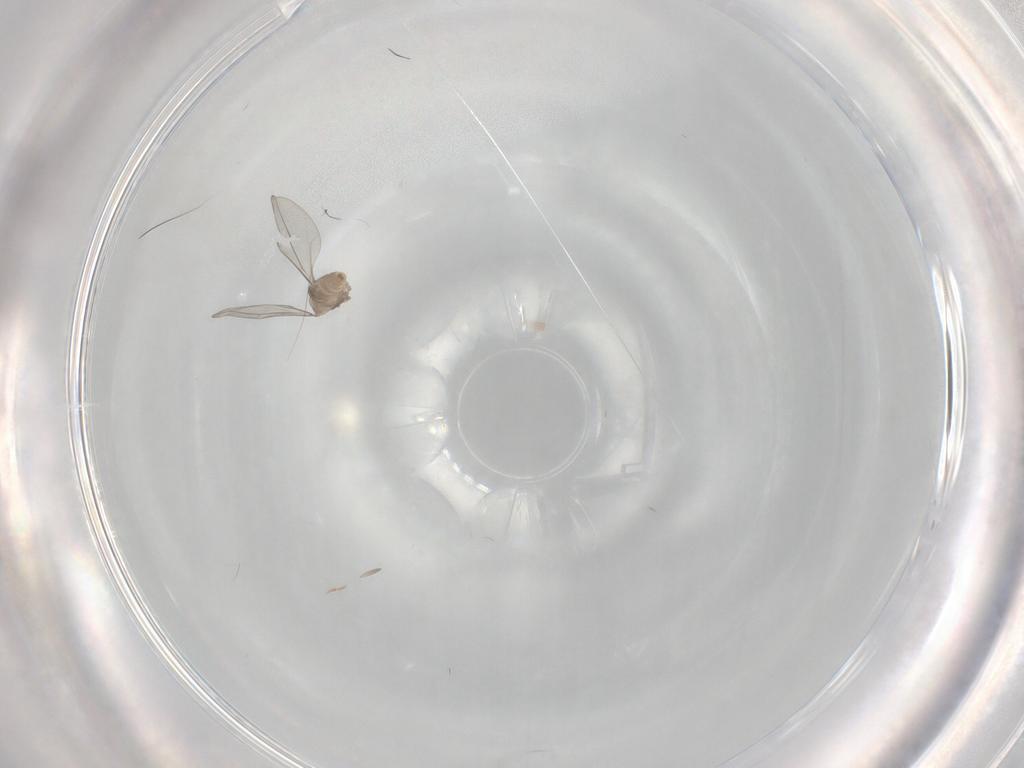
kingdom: Animalia
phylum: Arthropoda
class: Insecta
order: Diptera
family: Cecidomyiidae
